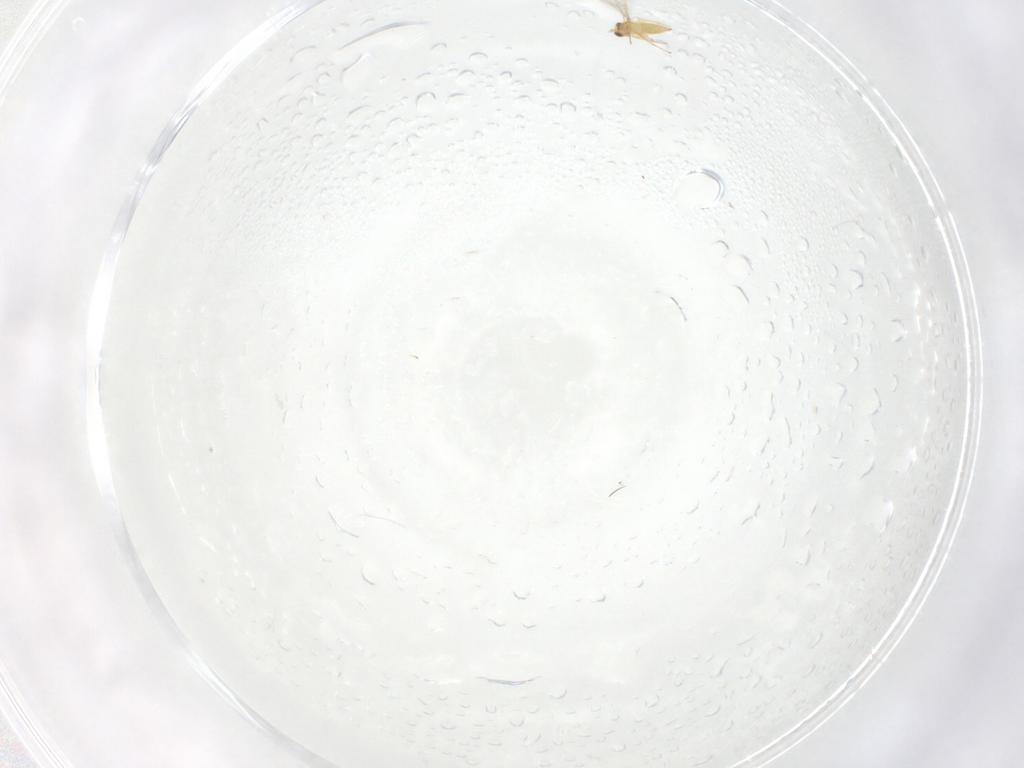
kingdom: Animalia
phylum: Arthropoda
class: Insecta
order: Hymenoptera
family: Mymaridae
